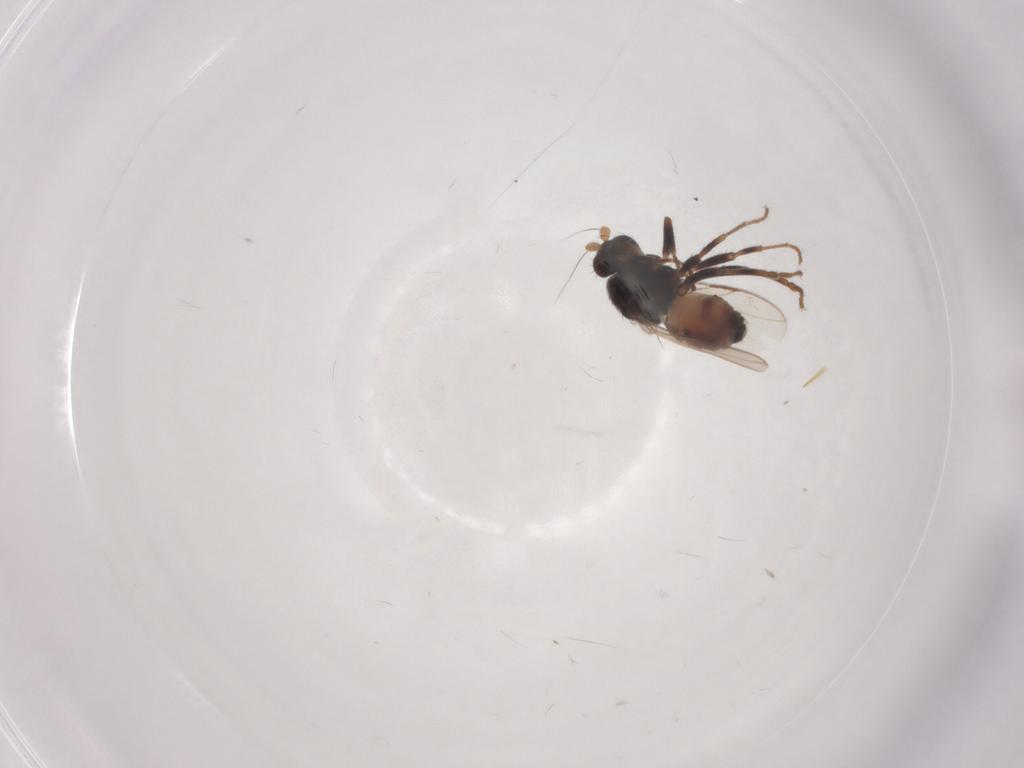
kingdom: Animalia
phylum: Arthropoda
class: Insecta
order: Diptera
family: Sphaeroceridae
